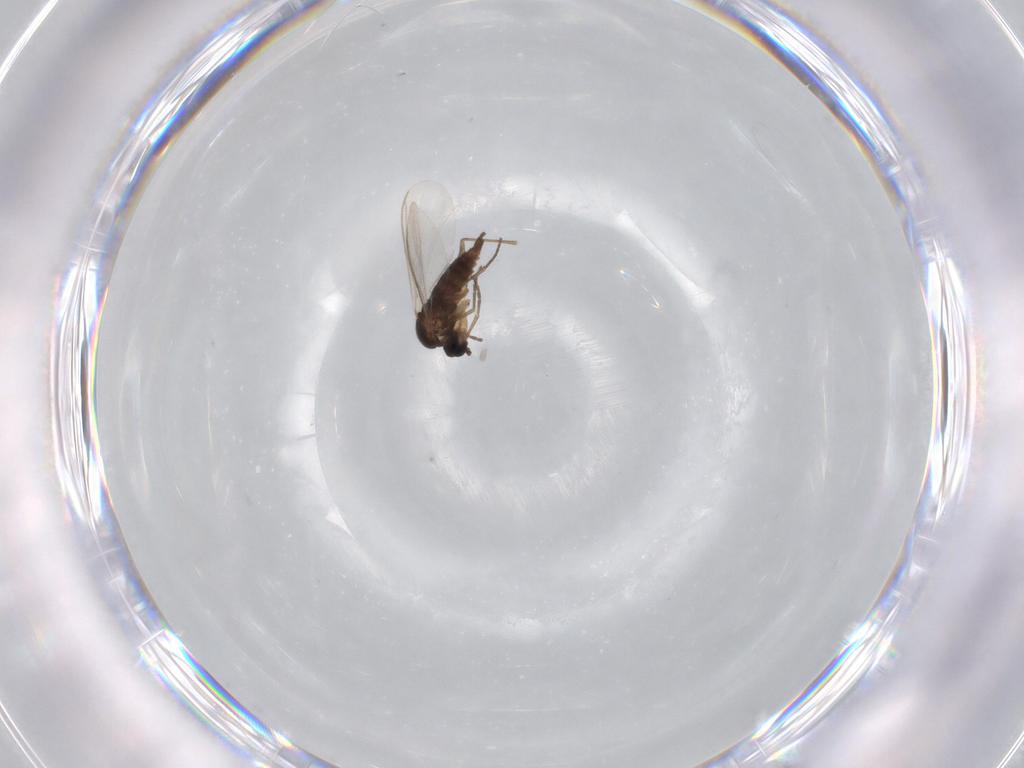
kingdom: Animalia
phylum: Arthropoda
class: Insecta
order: Diptera
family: Sciaridae
